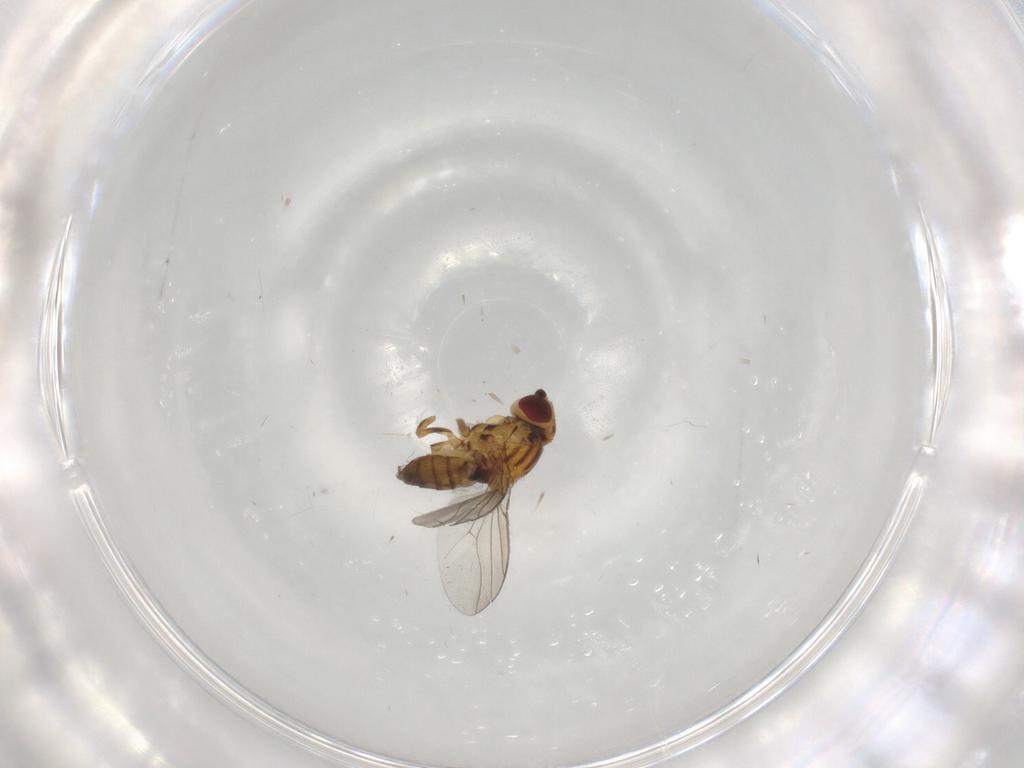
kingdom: Animalia
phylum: Arthropoda
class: Insecta
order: Diptera
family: Chloropidae
